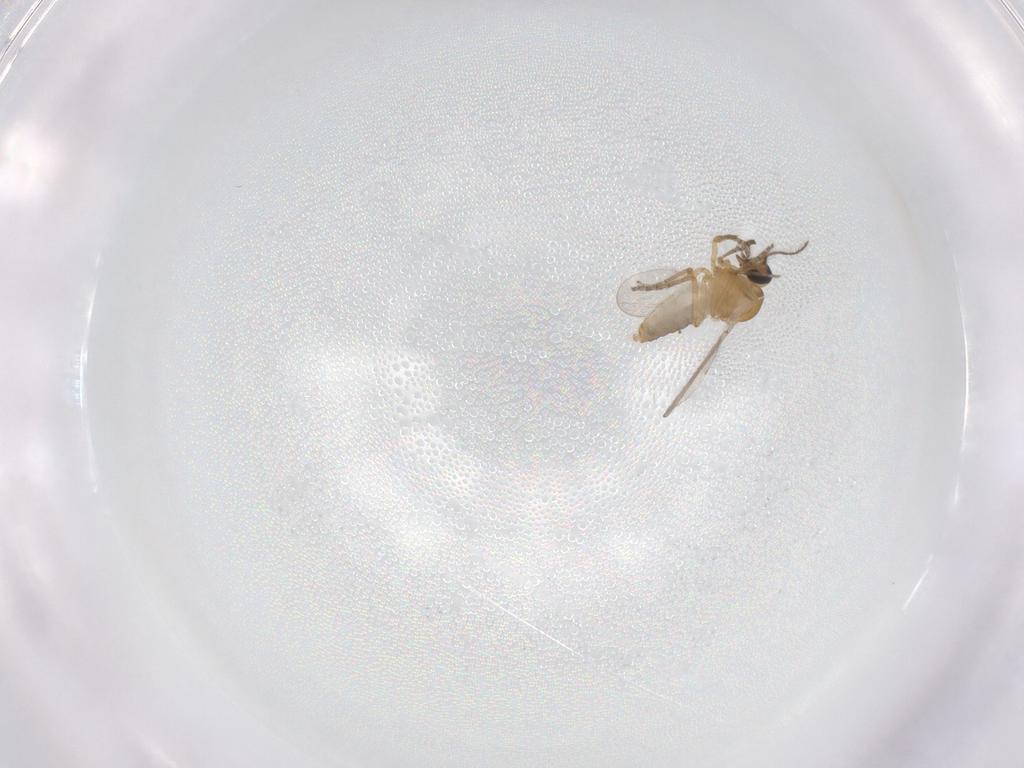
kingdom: Animalia
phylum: Arthropoda
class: Insecta
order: Diptera
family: Ceratopogonidae
